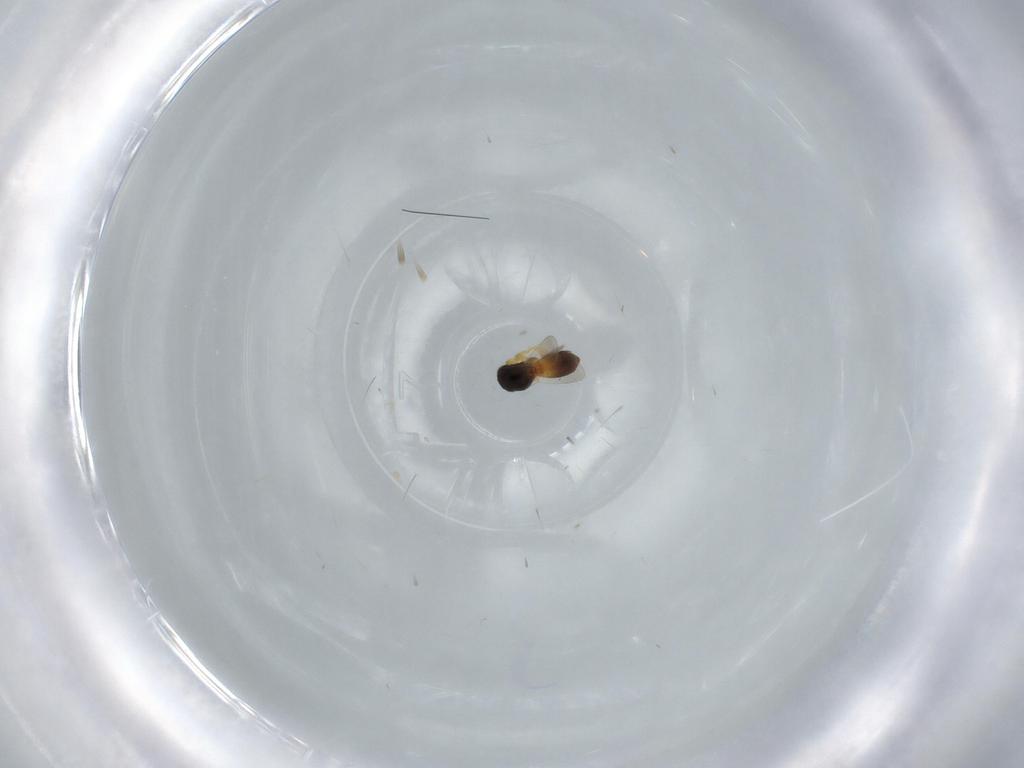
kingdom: Animalia
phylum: Arthropoda
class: Insecta
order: Hymenoptera
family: Platygastridae
